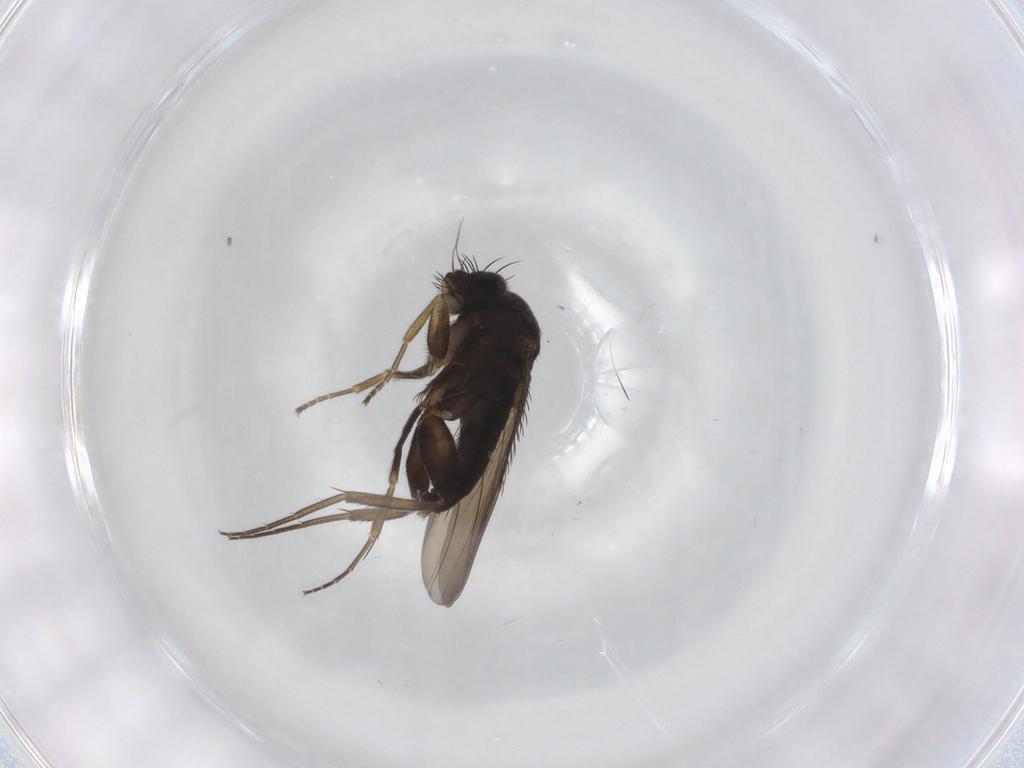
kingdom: Animalia
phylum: Arthropoda
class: Insecta
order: Diptera
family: Phoridae
